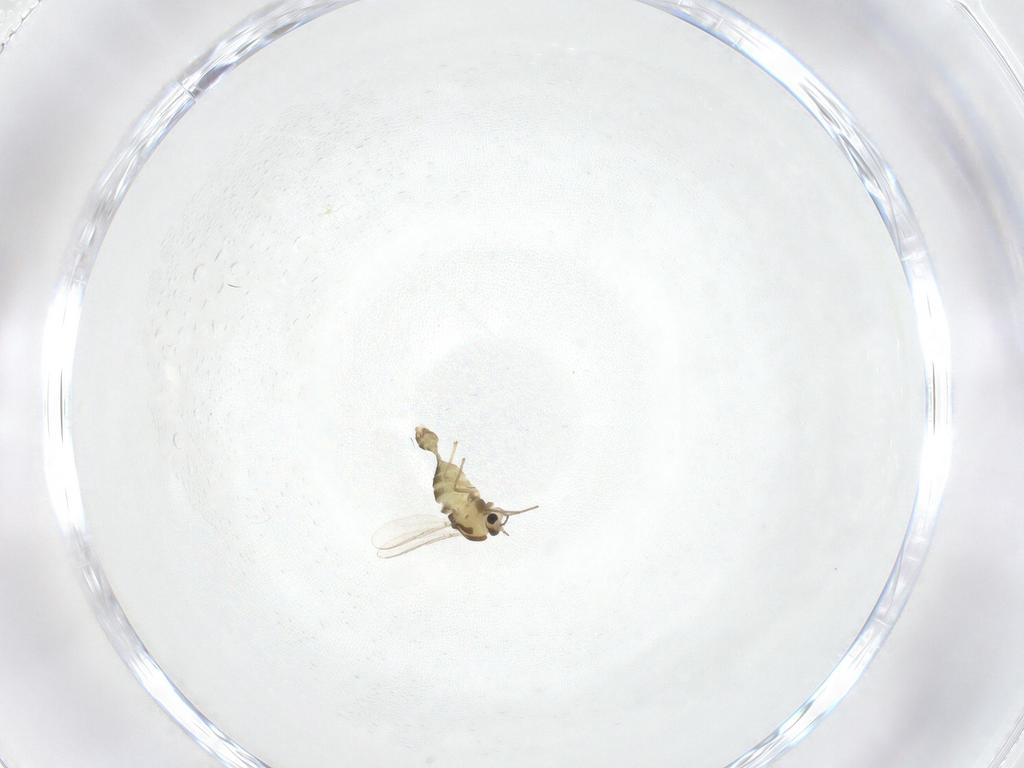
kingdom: Animalia
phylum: Arthropoda
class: Insecta
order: Diptera
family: Chironomidae
